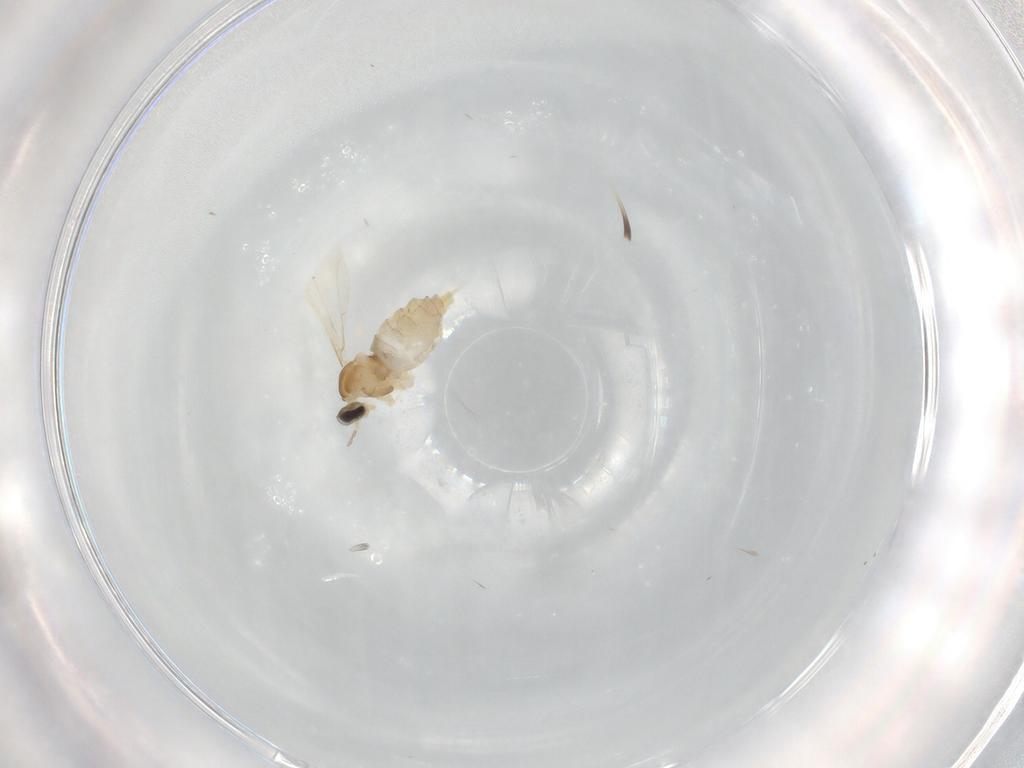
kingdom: Animalia
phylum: Arthropoda
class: Insecta
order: Diptera
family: Cecidomyiidae
